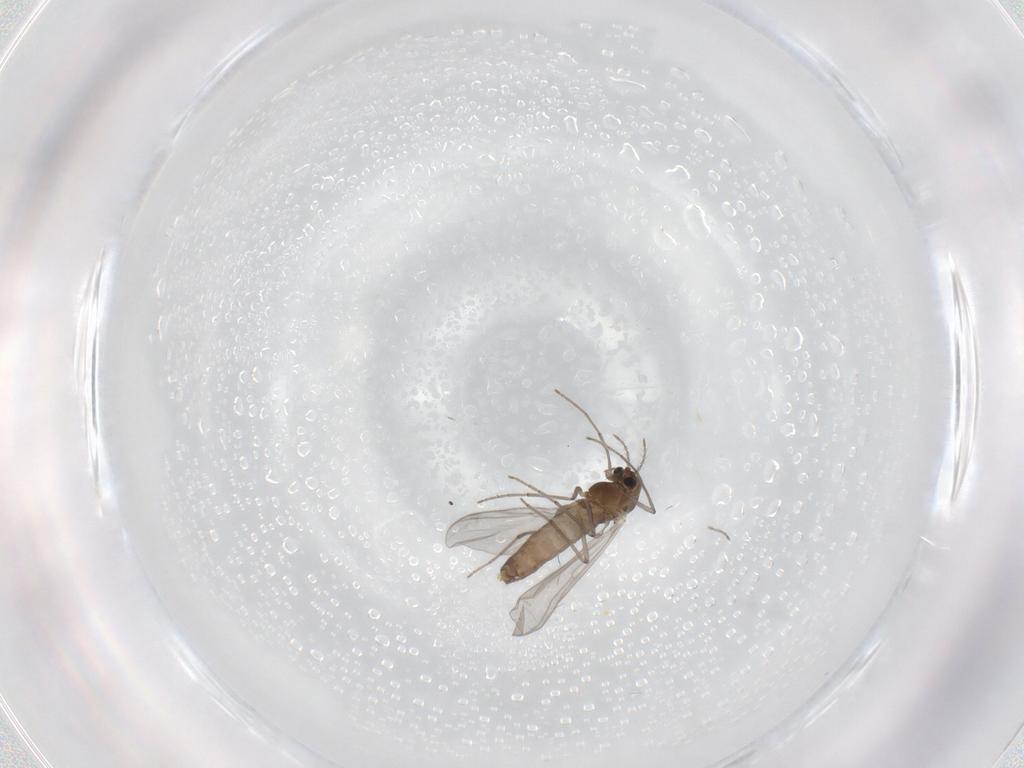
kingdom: Animalia
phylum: Arthropoda
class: Insecta
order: Diptera
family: Chironomidae
